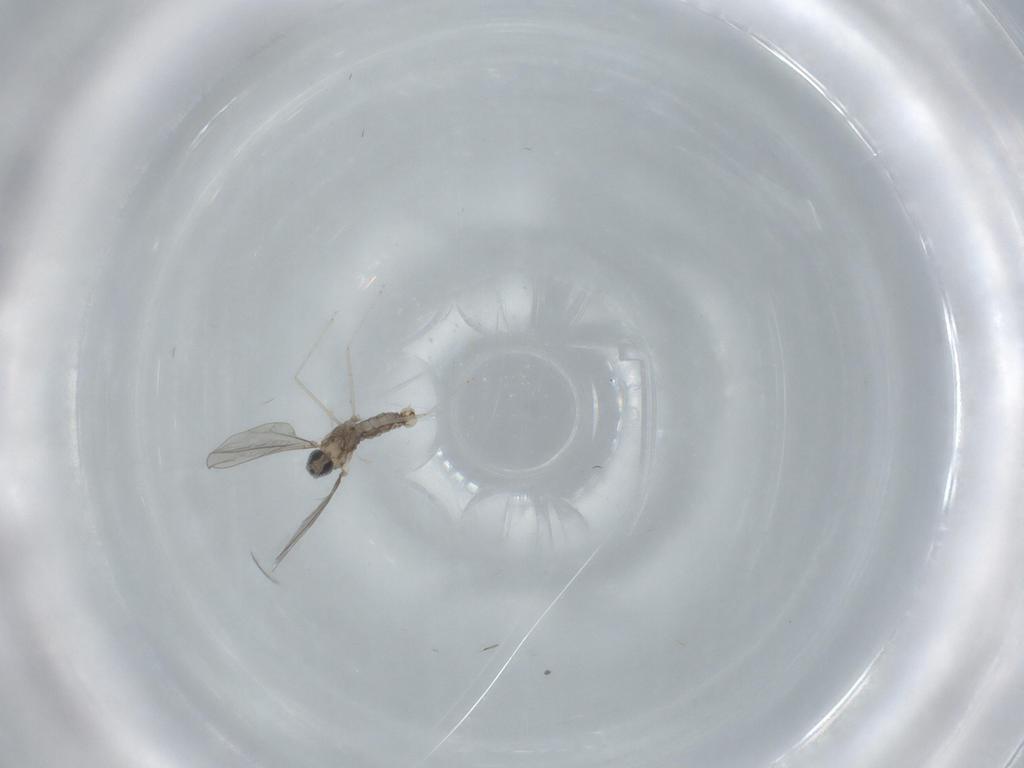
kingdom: Animalia
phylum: Arthropoda
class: Insecta
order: Diptera
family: Cecidomyiidae
